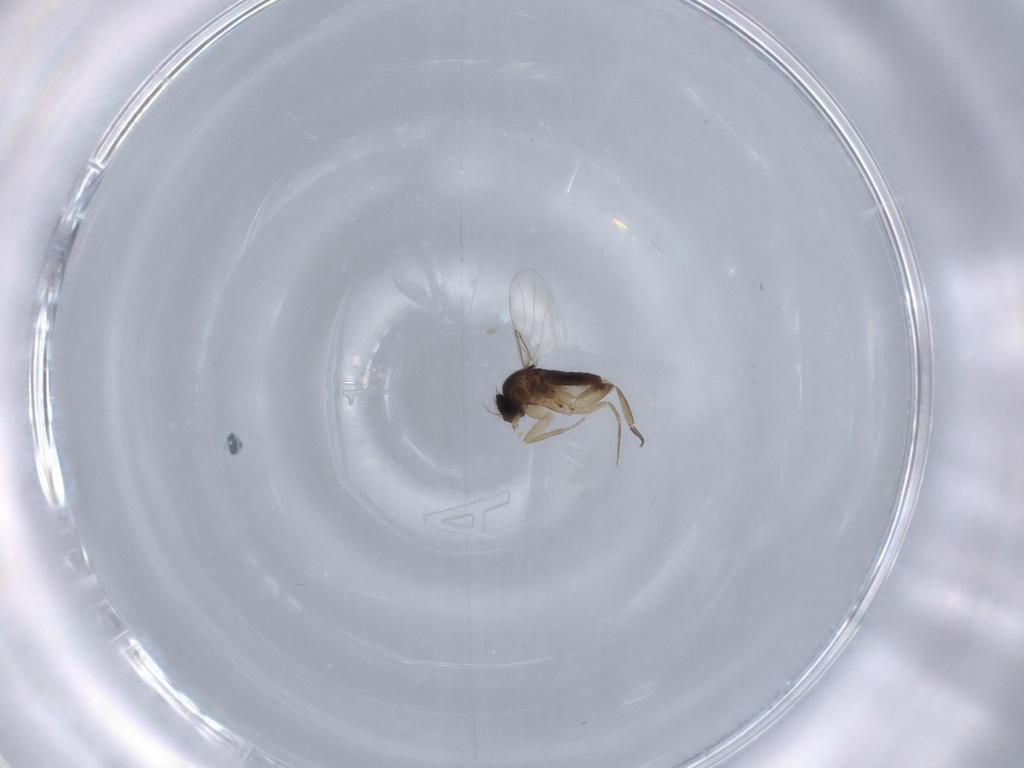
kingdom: Animalia
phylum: Arthropoda
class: Insecta
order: Diptera
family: Phoridae
